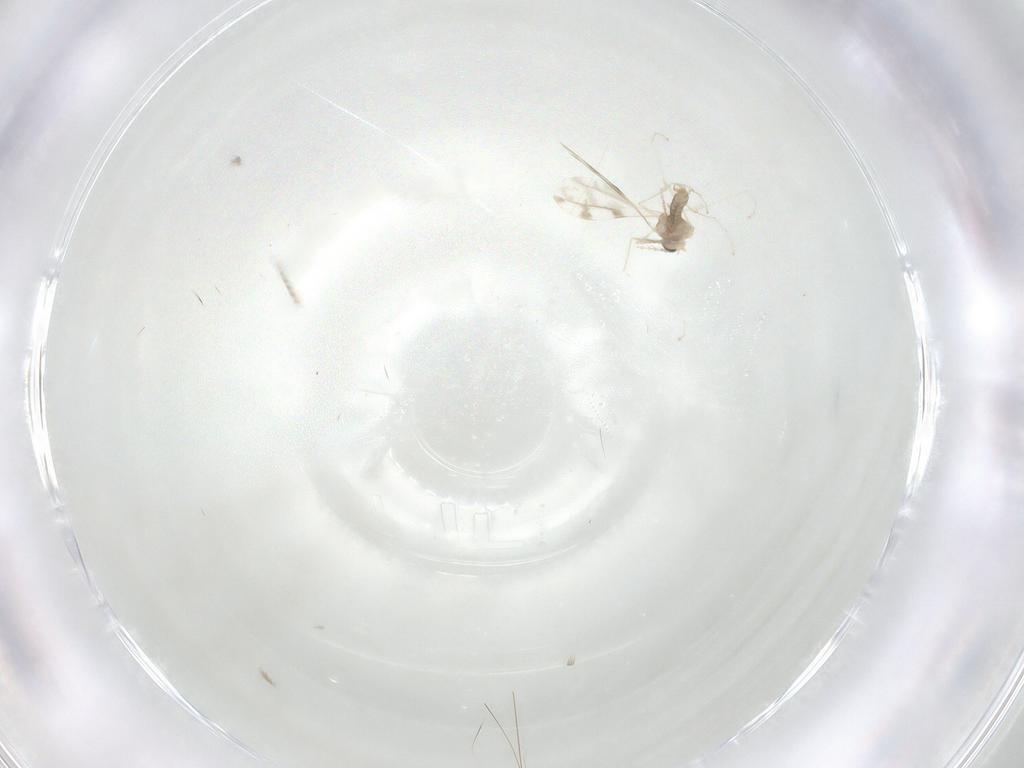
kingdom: Animalia
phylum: Arthropoda
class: Insecta
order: Diptera
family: Cecidomyiidae
